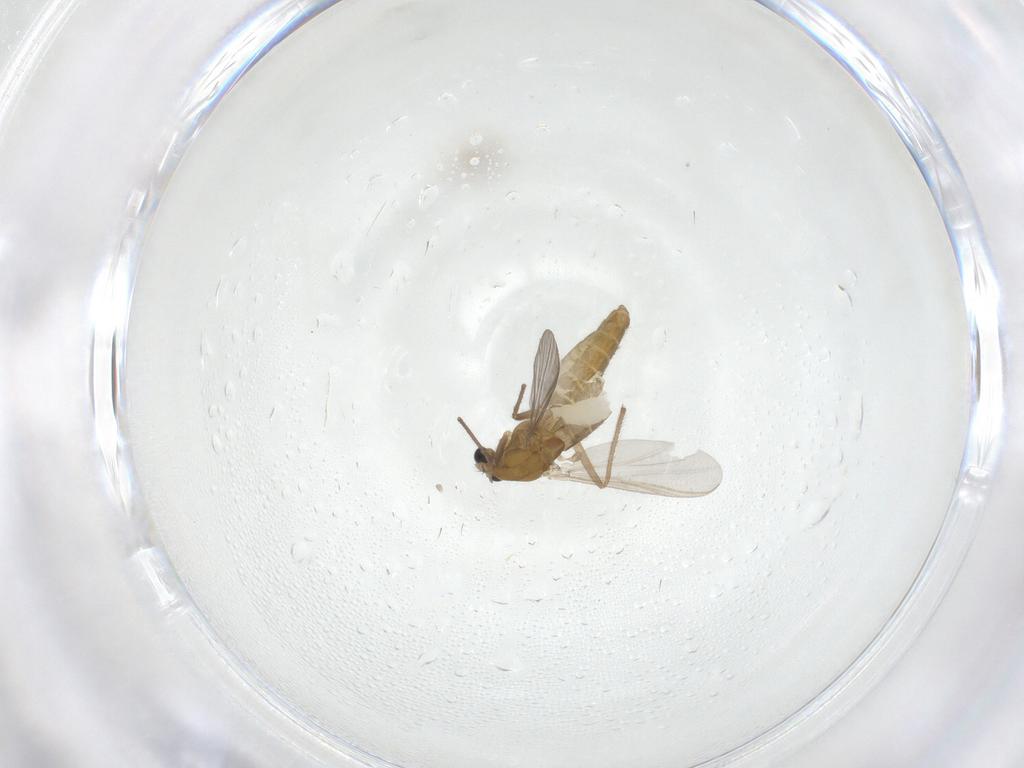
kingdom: Animalia
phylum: Arthropoda
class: Insecta
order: Diptera
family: Chironomidae
